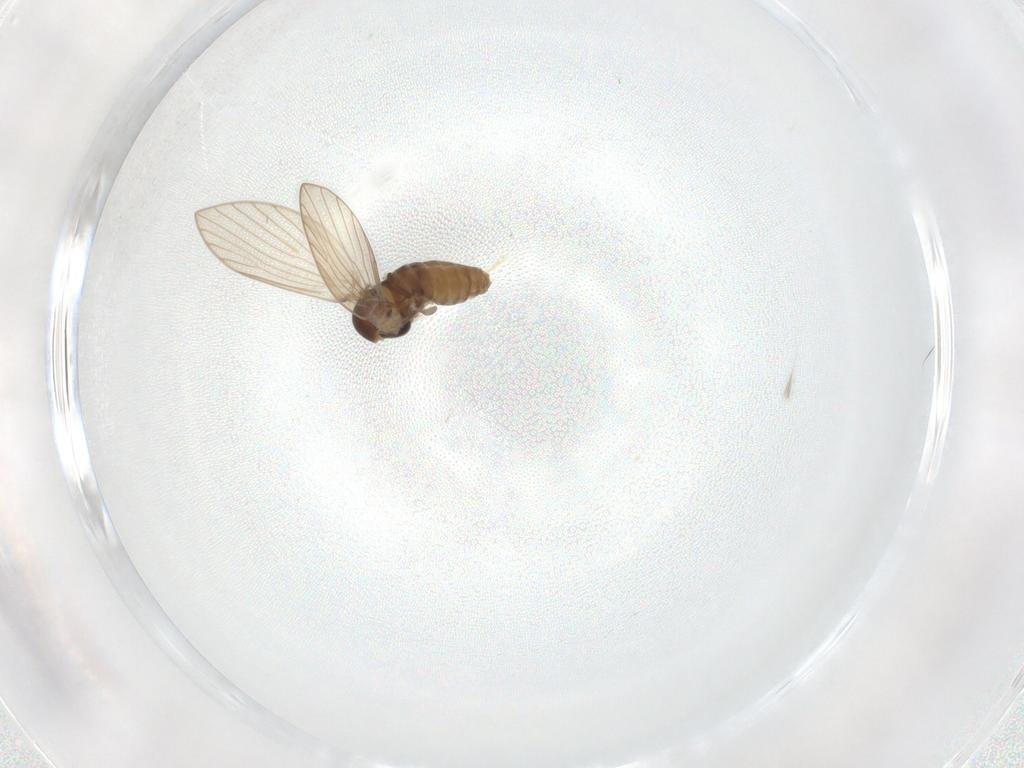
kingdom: Animalia
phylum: Arthropoda
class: Insecta
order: Diptera
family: Psychodidae
